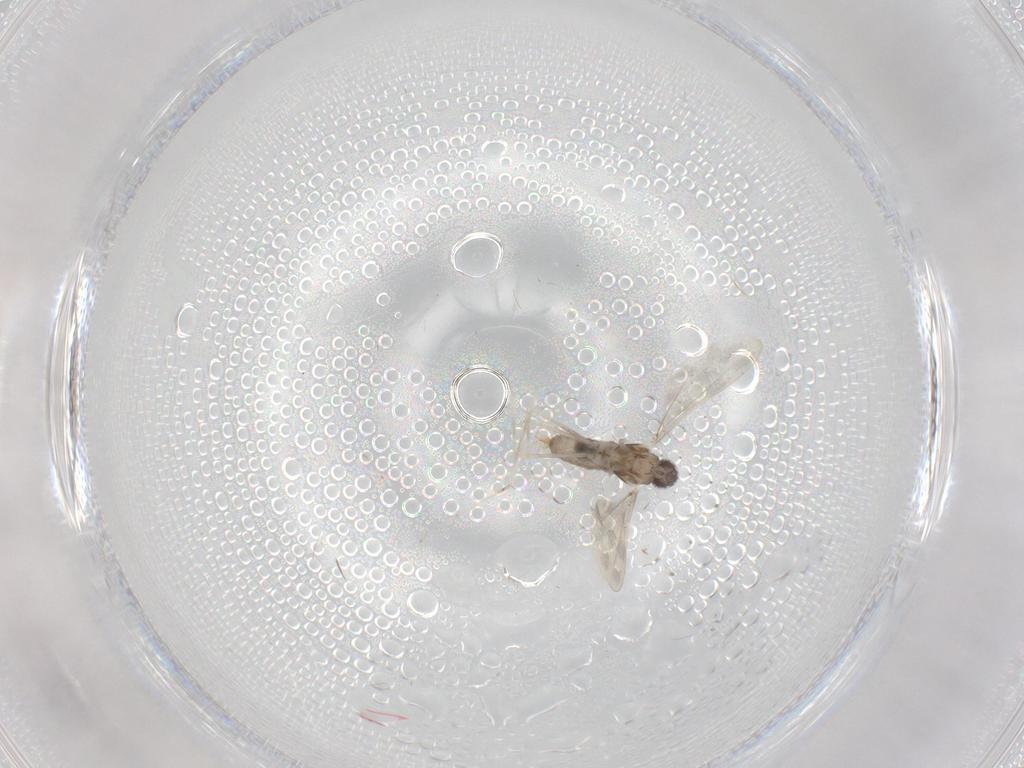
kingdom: Animalia
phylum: Arthropoda
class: Insecta
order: Diptera
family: Cecidomyiidae
